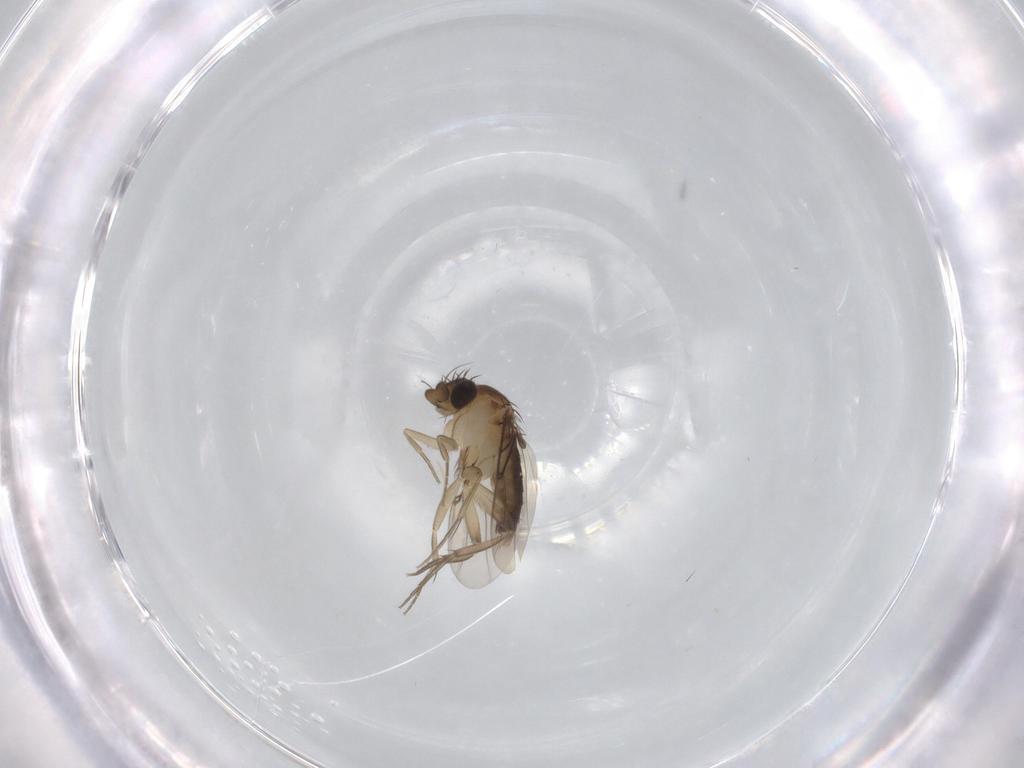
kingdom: Animalia
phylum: Arthropoda
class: Insecta
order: Diptera
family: Phoridae
